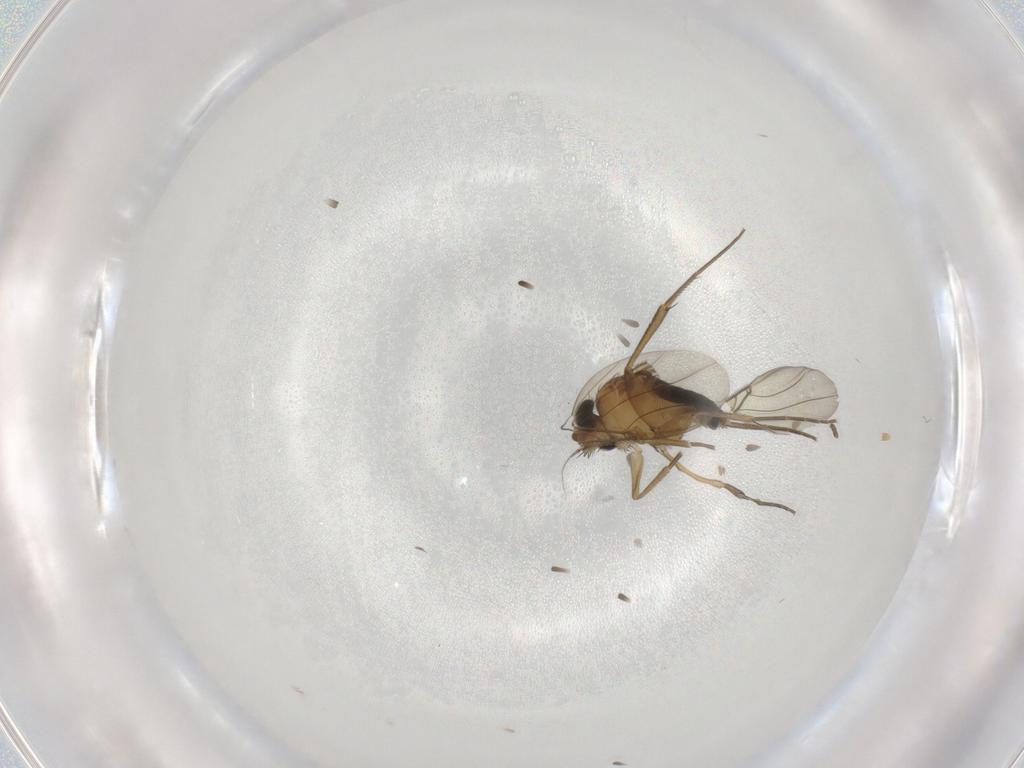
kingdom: Animalia
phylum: Arthropoda
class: Insecta
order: Diptera
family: Phoridae
